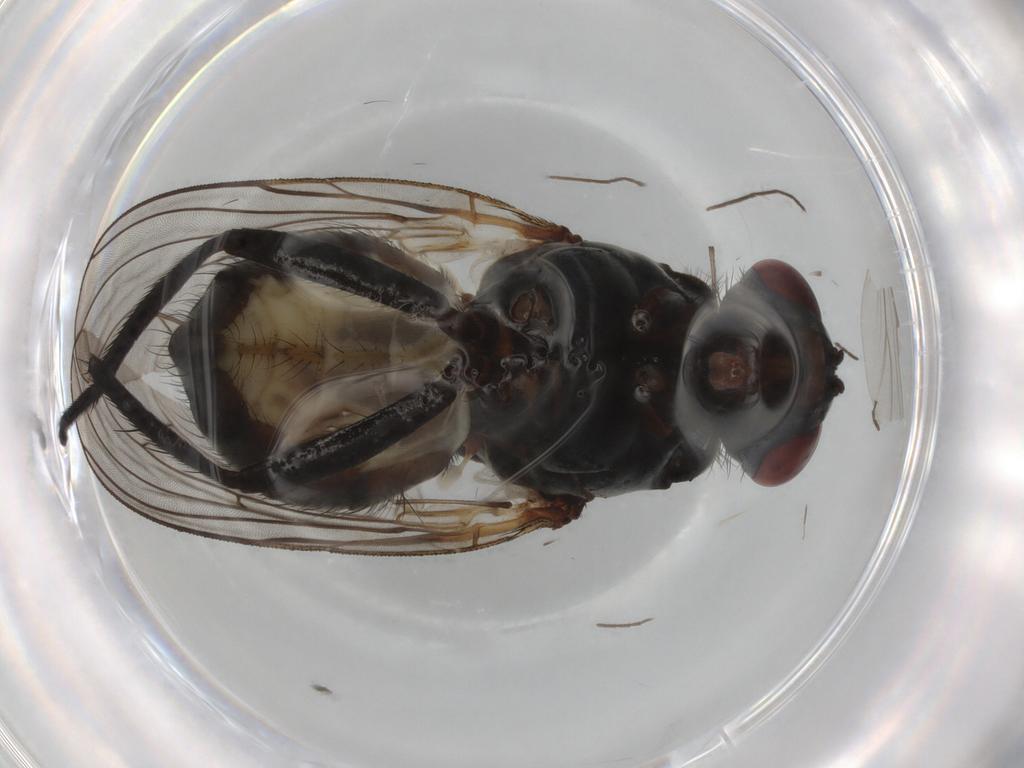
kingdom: Animalia
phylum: Arthropoda
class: Insecta
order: Diptera
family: Anthomyiidae
